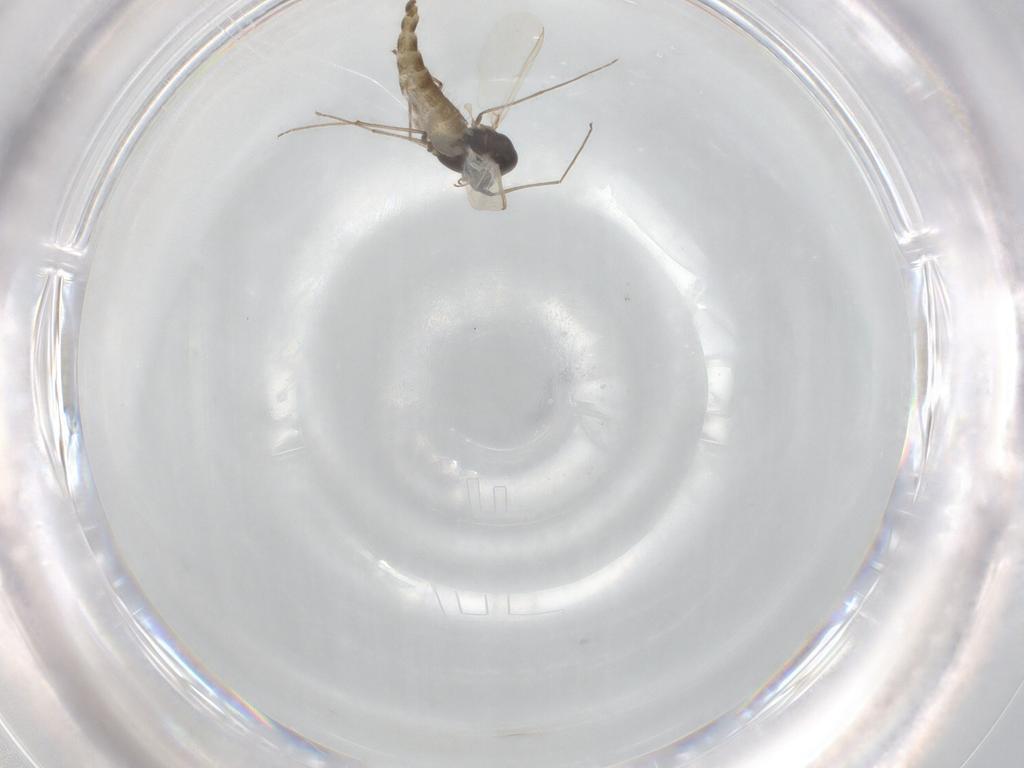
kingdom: Animalia
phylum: Arthropoda
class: Insecta
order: Diptera
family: Chironomidae
